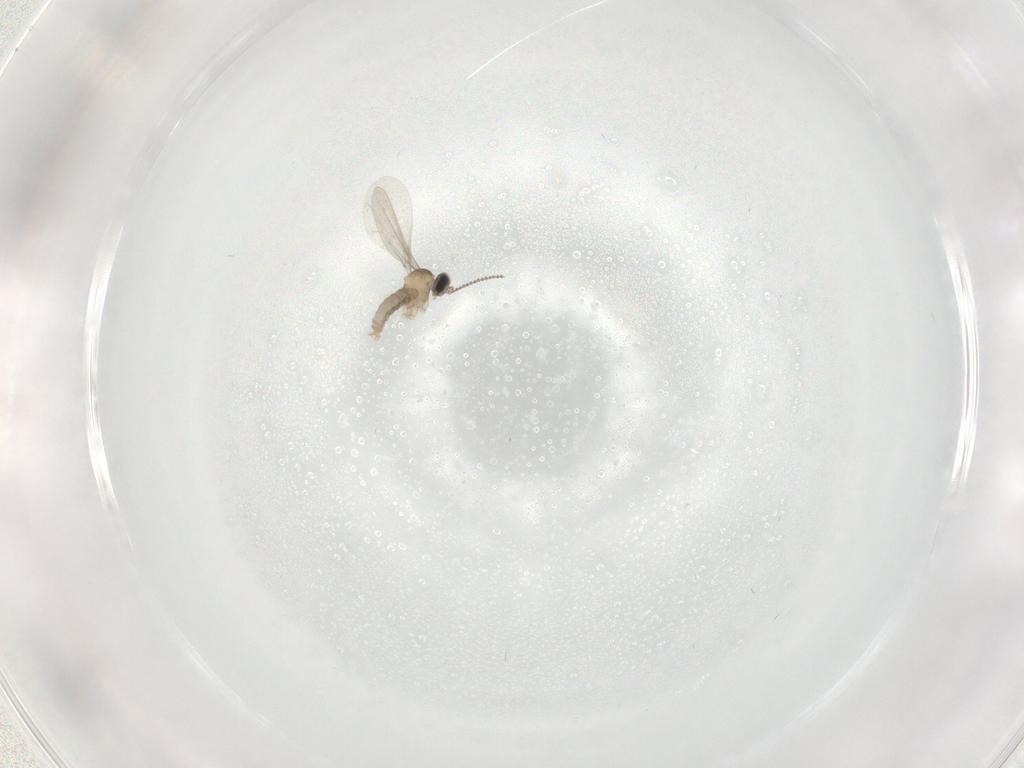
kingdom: Animalia
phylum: Arthropoda
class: Insecta
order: Diptera
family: Cecidomyiidae
